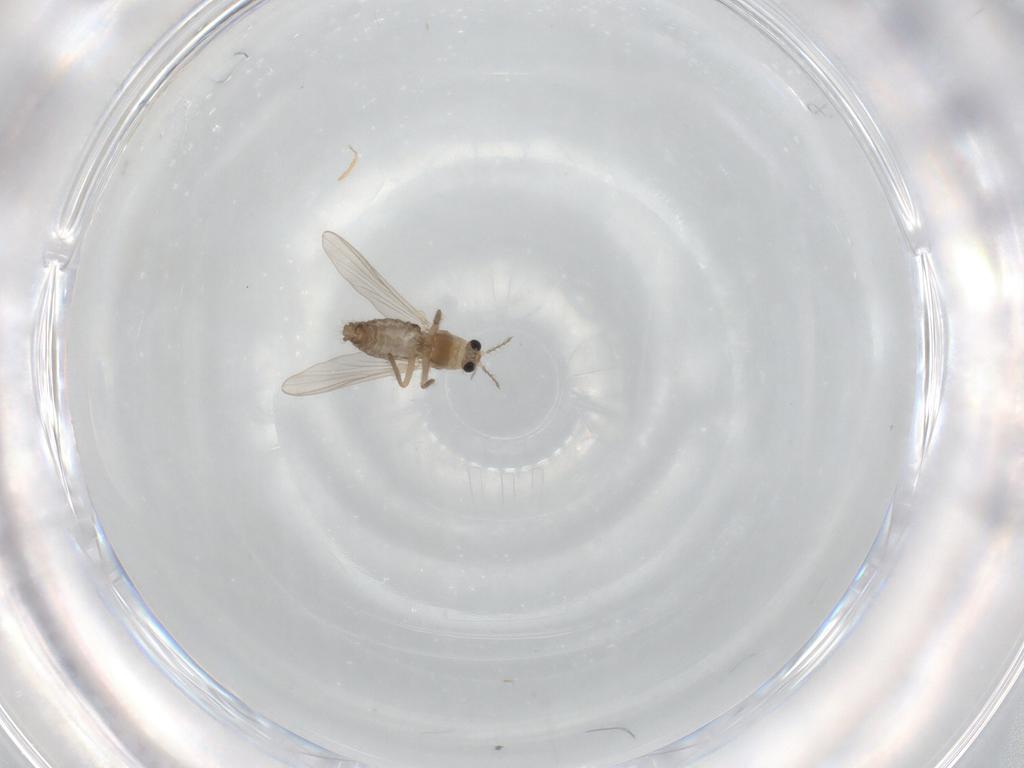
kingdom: Animalia
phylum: Arthropoda
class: Insecta
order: Diptera
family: Chironomidae
